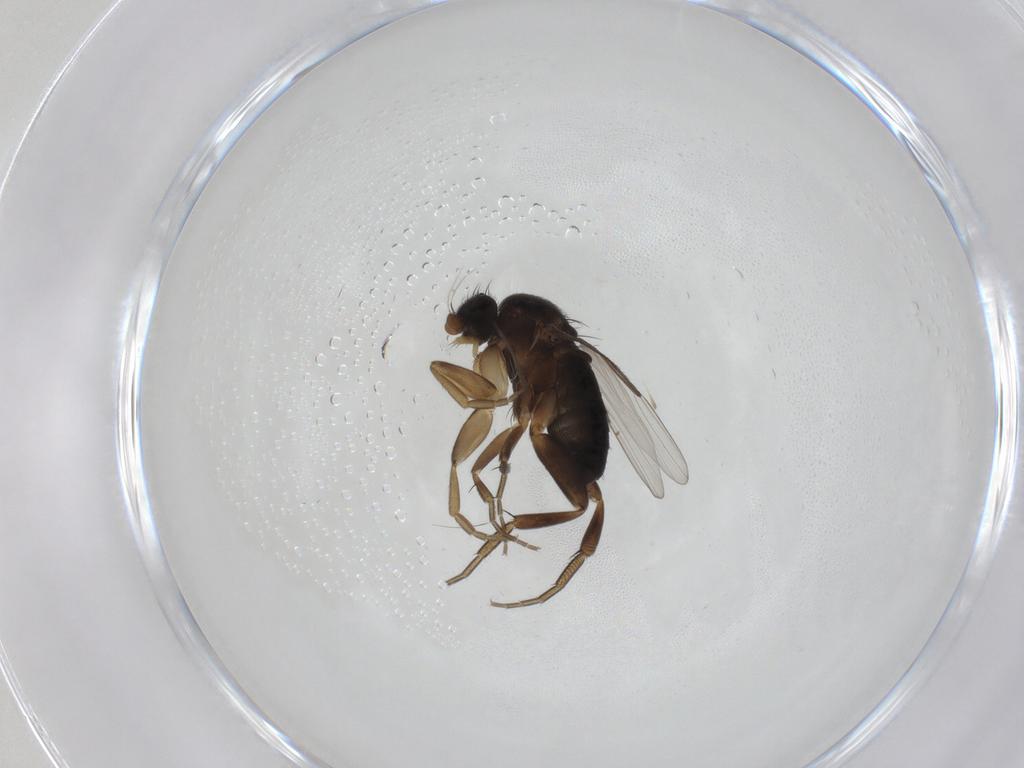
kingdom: Animalia
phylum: Arthropoda
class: Insecta
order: Diptera
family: Phoridae
